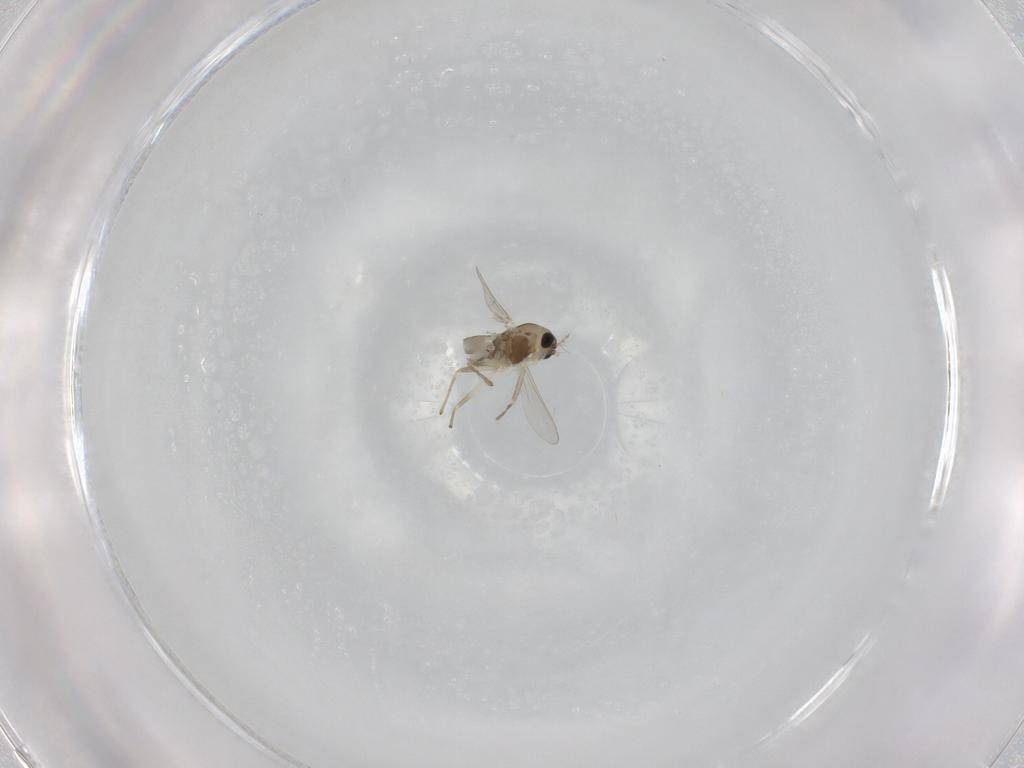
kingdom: Animalia
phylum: Arthropoda
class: Insecta
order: Diptera
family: Chironomidae
